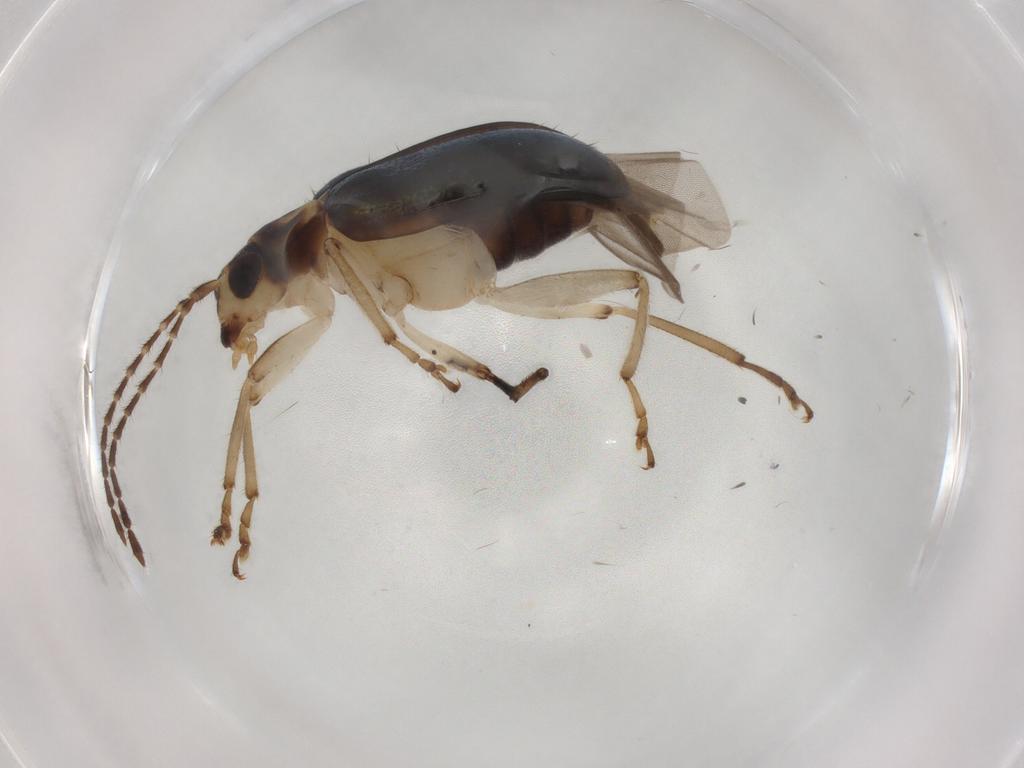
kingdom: Animalia
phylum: Arthropoda
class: Insecta
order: Coleoptera
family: Chrysomelidae
